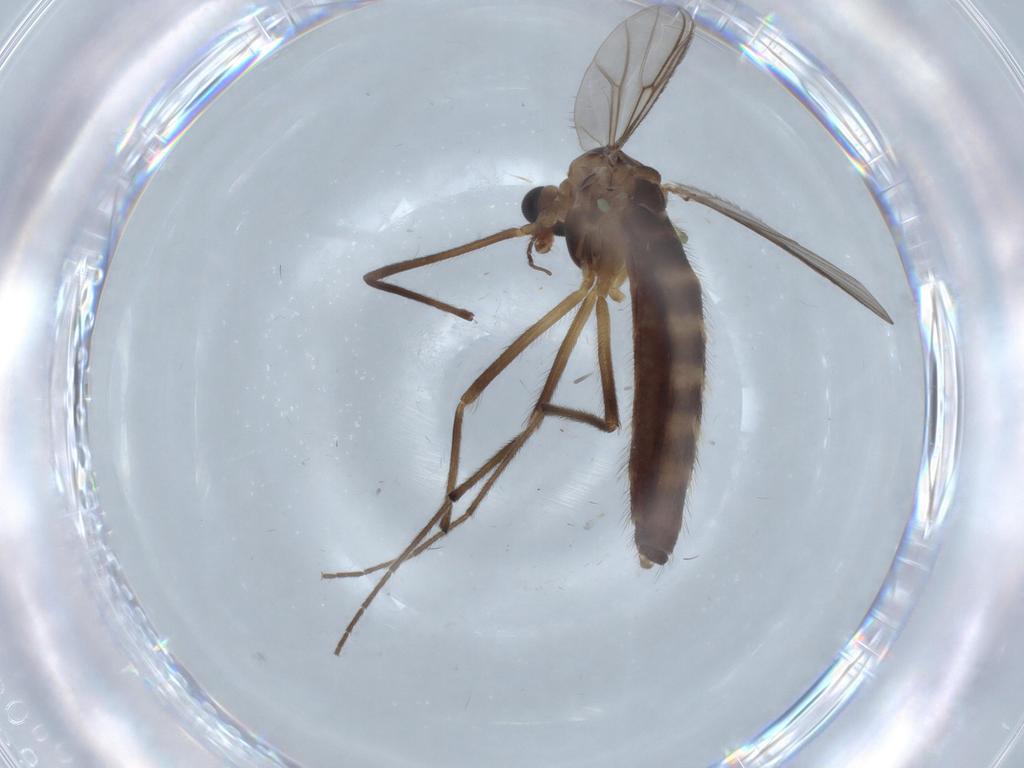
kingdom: Animalia
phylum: Arthropoda
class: Insecta
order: Diptera
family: Chironomidae
